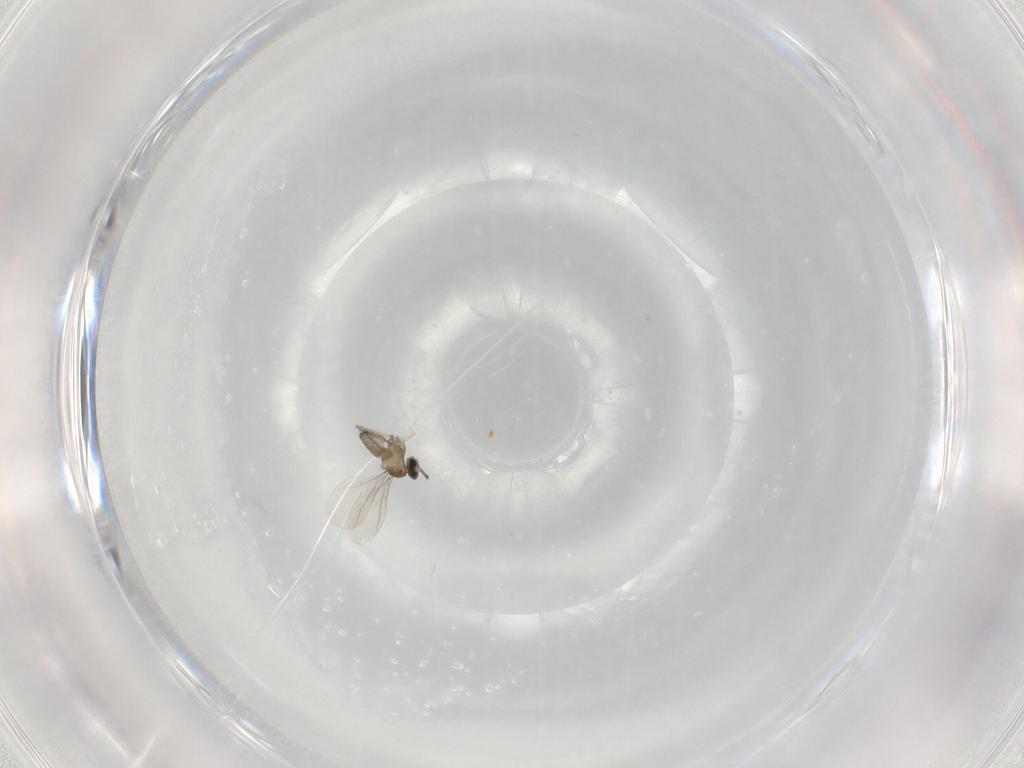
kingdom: Animalia
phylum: Arthropoda
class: Insecta
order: Diptera
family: Cecidomyiidae
